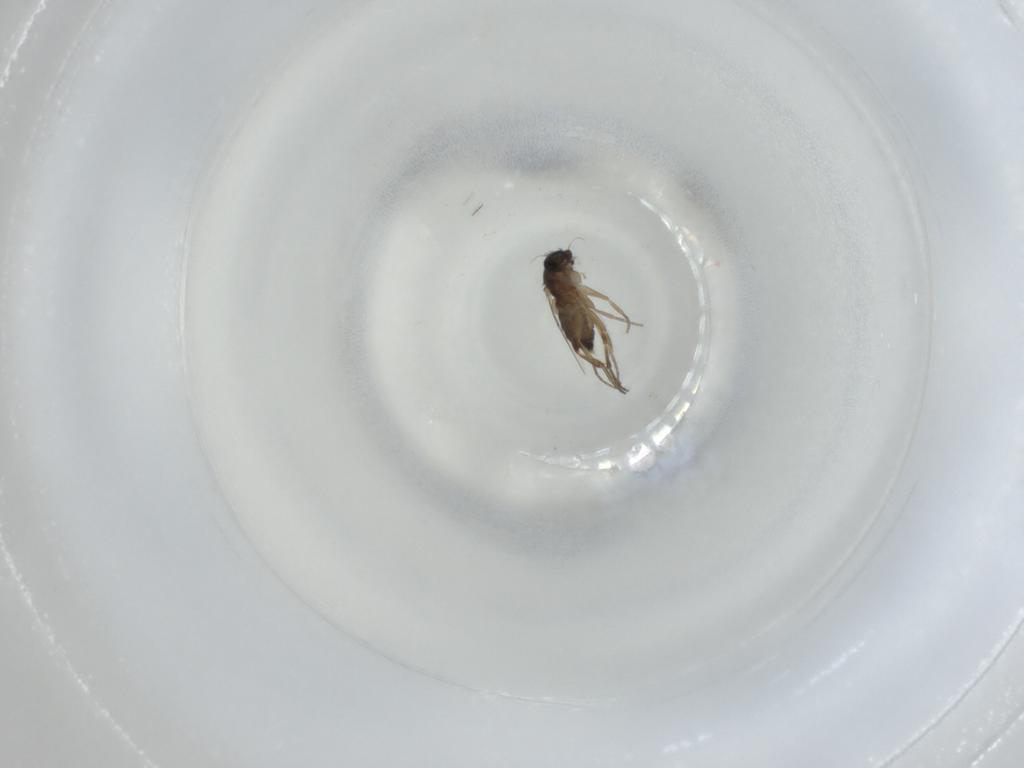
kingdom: Animalia
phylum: Arthropoda
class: Insecta
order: Diptera
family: Phoridae
